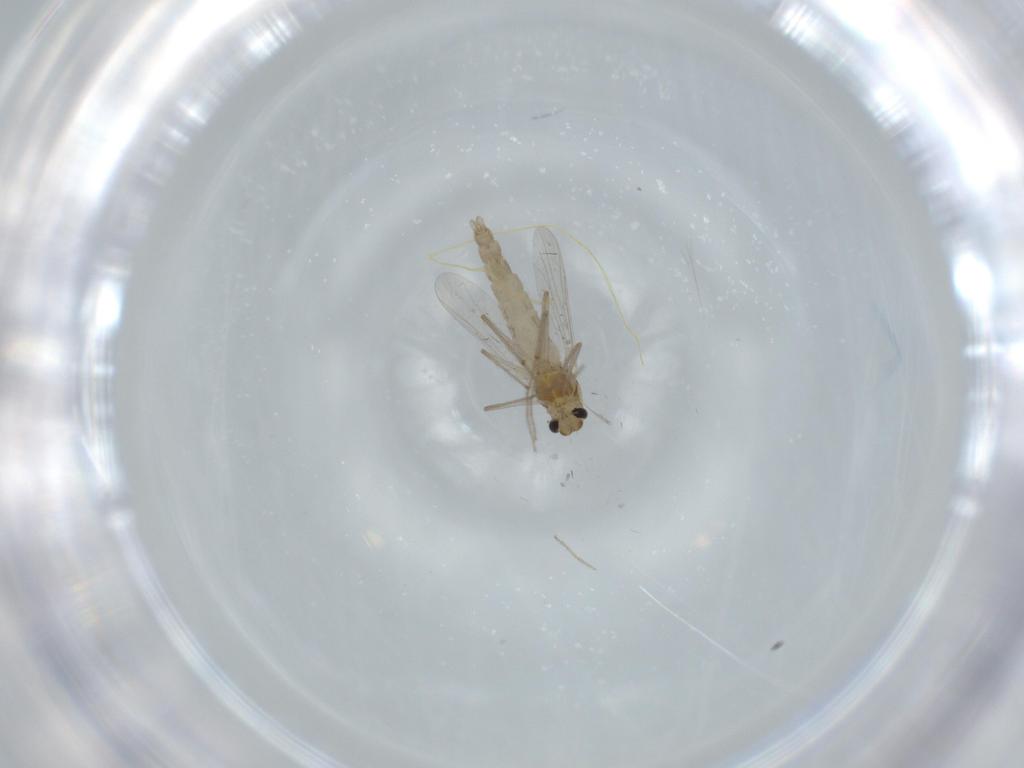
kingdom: Animalia
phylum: Arthropoda
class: Insecta
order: Diptera
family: Chironomidae
